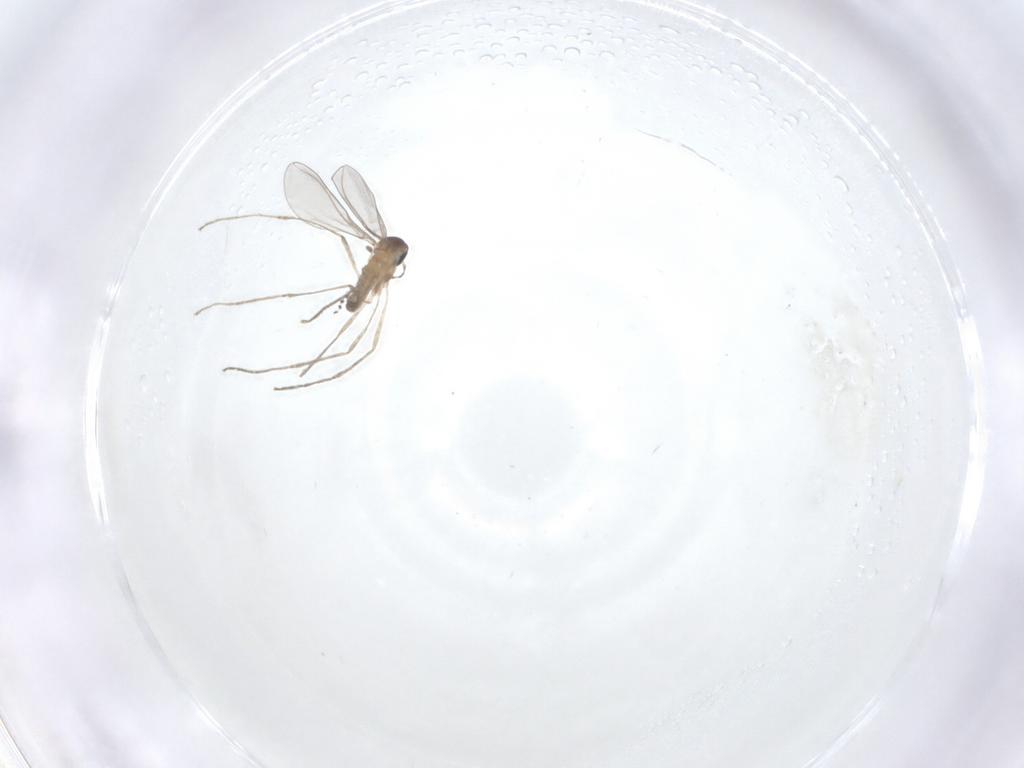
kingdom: Animalia
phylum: Arthropoda
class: Insecta
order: Diptera
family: Cecidomyiidae
